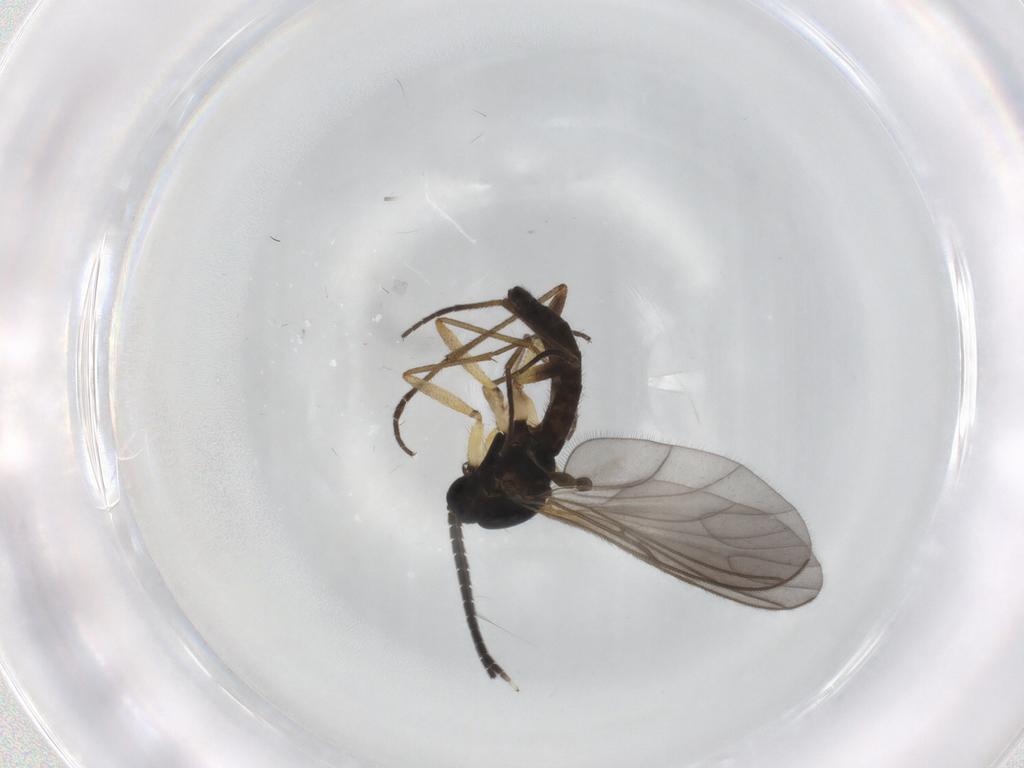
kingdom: Animalia
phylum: Arthropoda
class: Insecta
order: Diptera
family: Sciaridae
